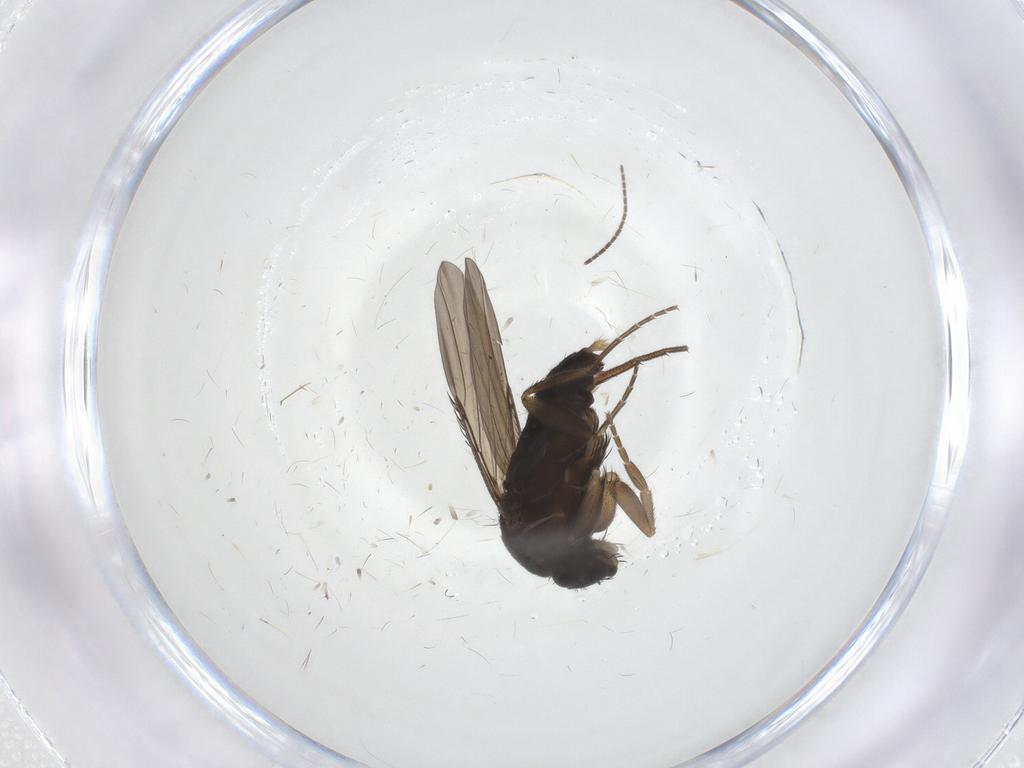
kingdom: Animalia
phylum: Arthropoda
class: Insecta
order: Diptera
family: Phoridae
